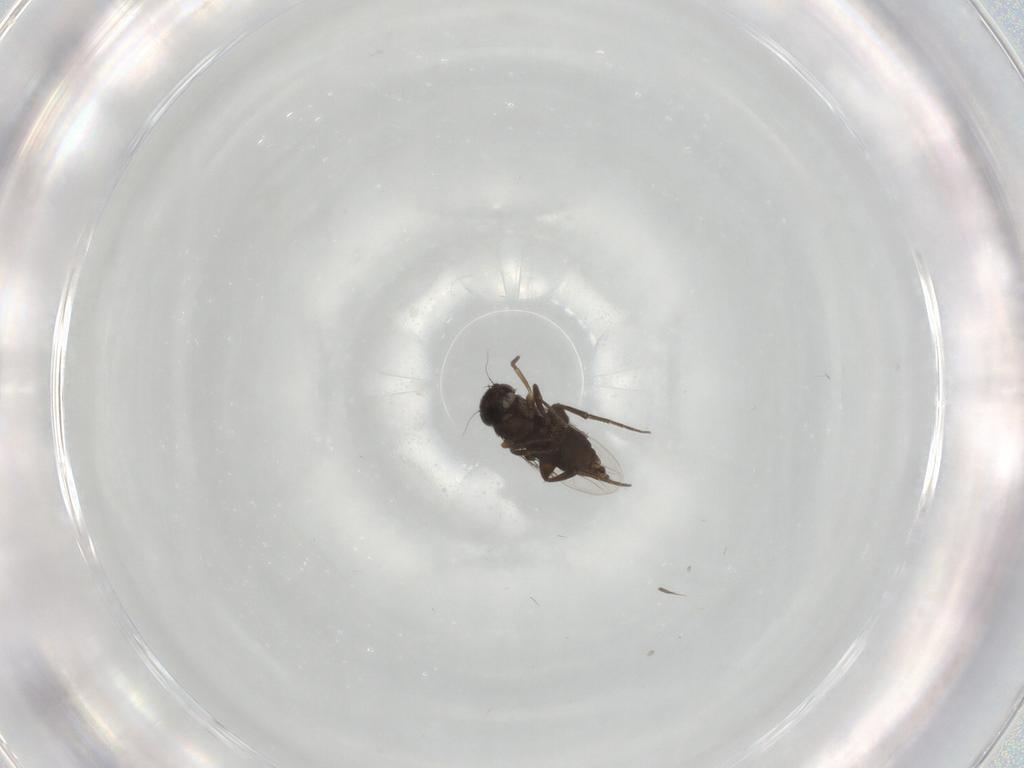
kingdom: Animalia
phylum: Arthropoda
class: Insecta
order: Diptera
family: Phoridae
